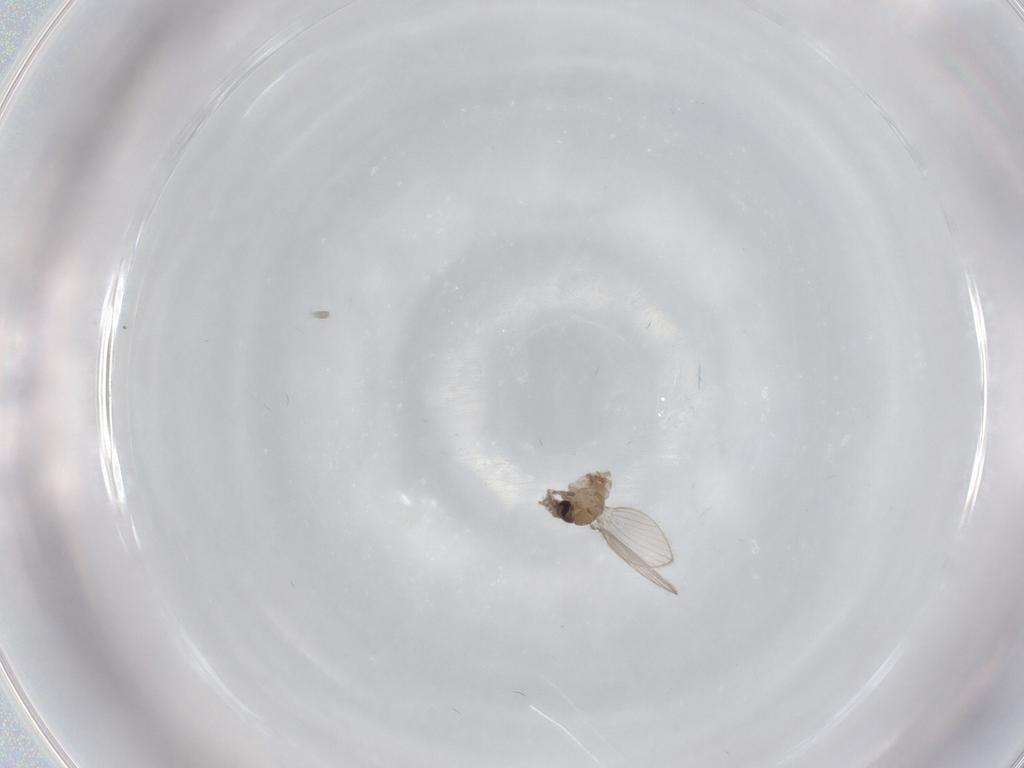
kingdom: Animalia
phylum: Arthropoda
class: Insecta
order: Diptera
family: Psychodidae
